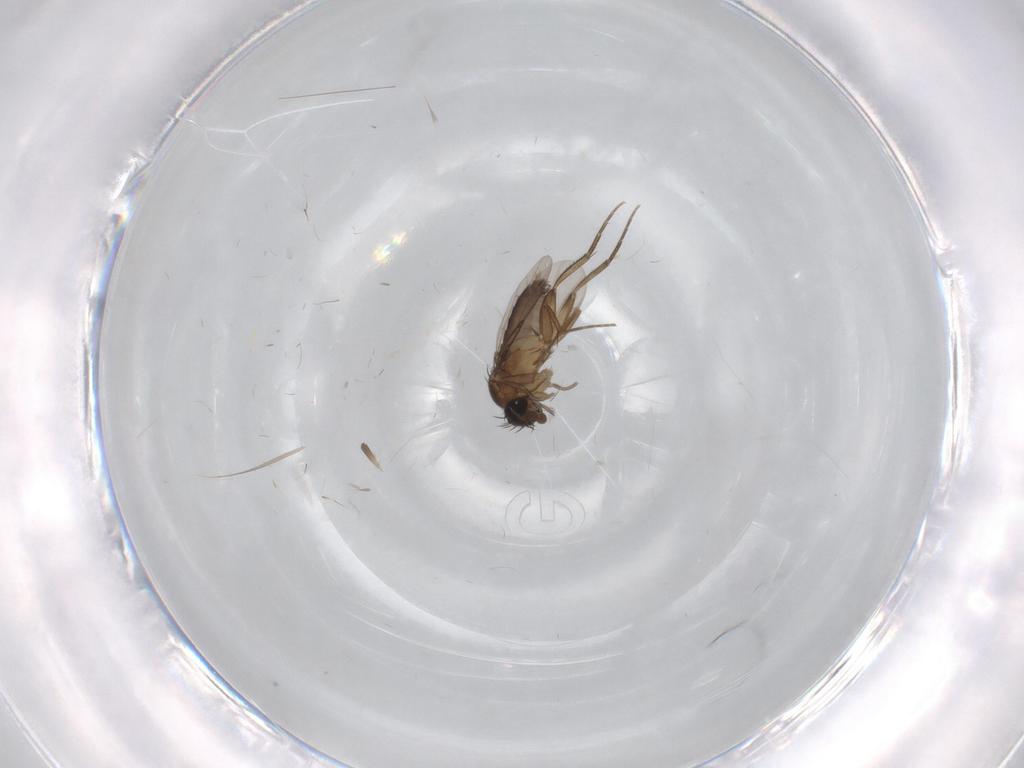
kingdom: Animalia
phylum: Arthropoda
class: Insecta
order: Diptera
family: Phoridae
